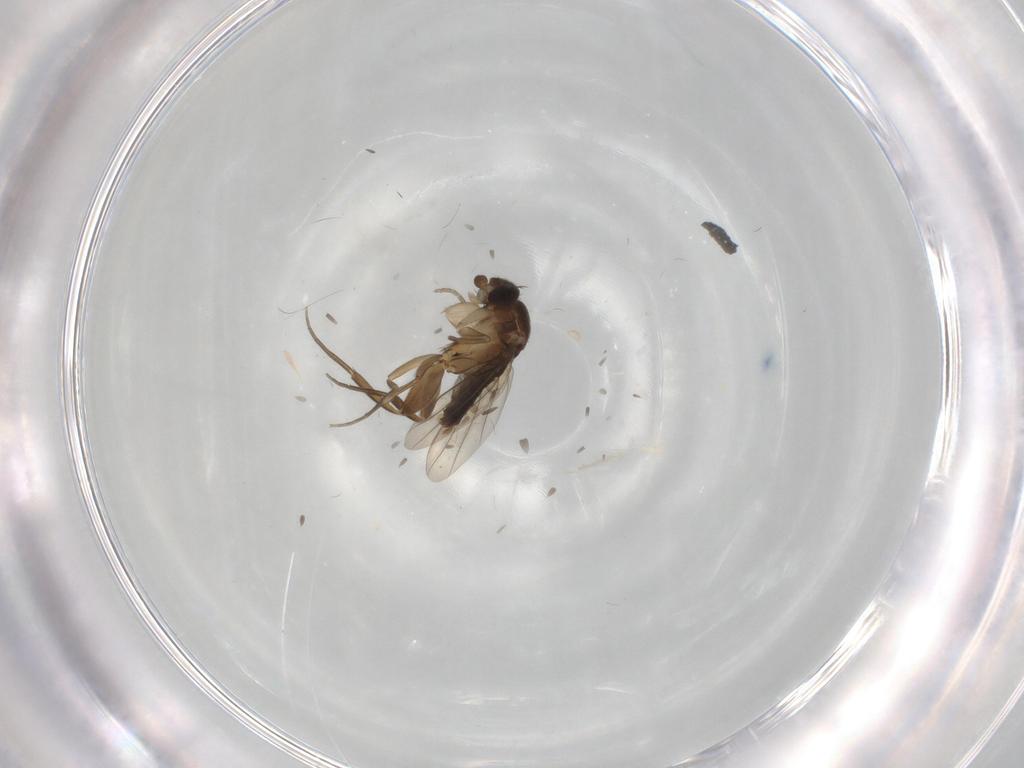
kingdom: Animalia
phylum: Arthropoda
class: Insecta
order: Diptera
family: Phoridae
